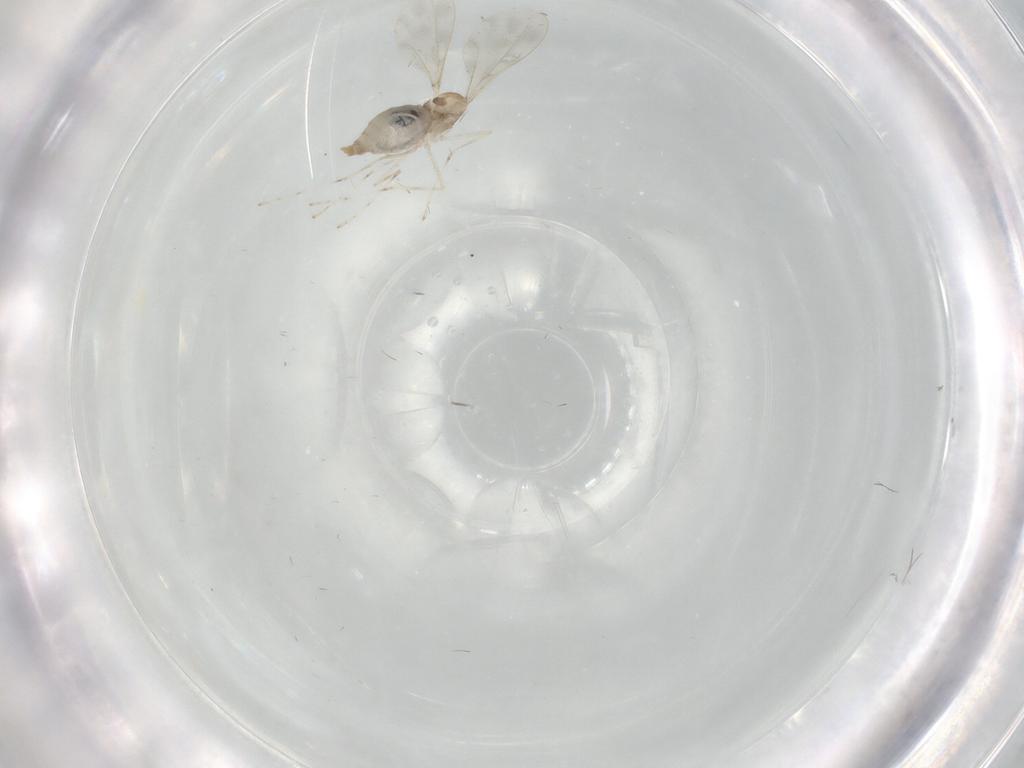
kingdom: Animalia
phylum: Arthropoda
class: Insecta
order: Diptera
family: Cecidomyiidae
